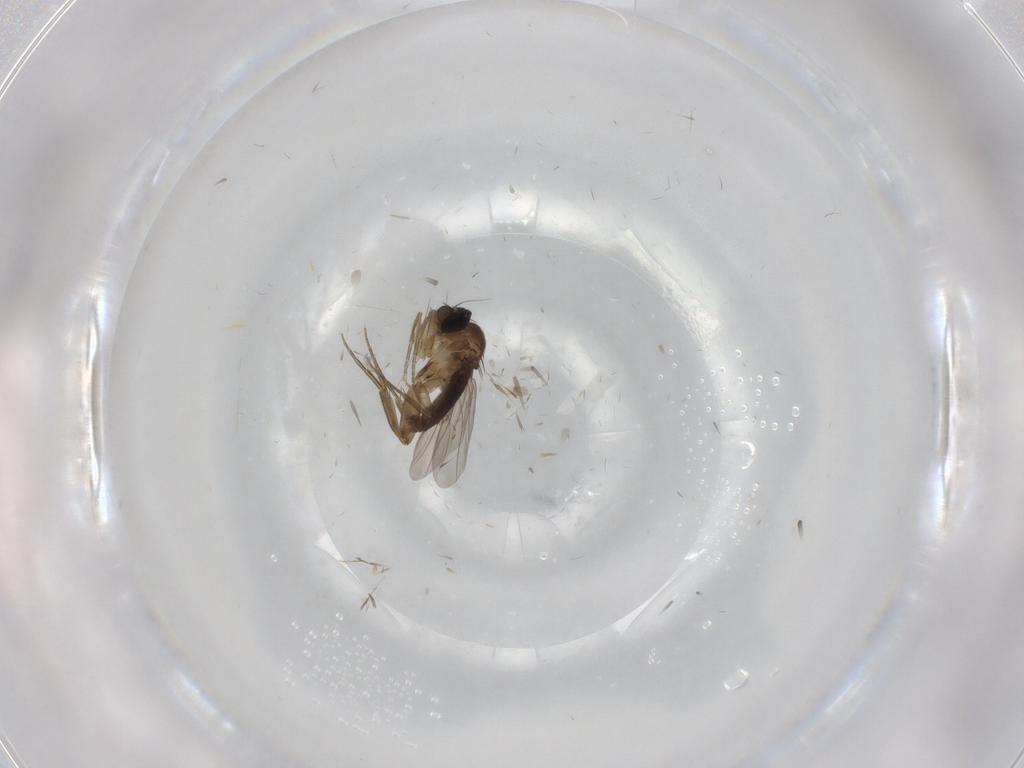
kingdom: Animalia
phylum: Arthropoda
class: Insecta
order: Diptera
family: Phoridae
